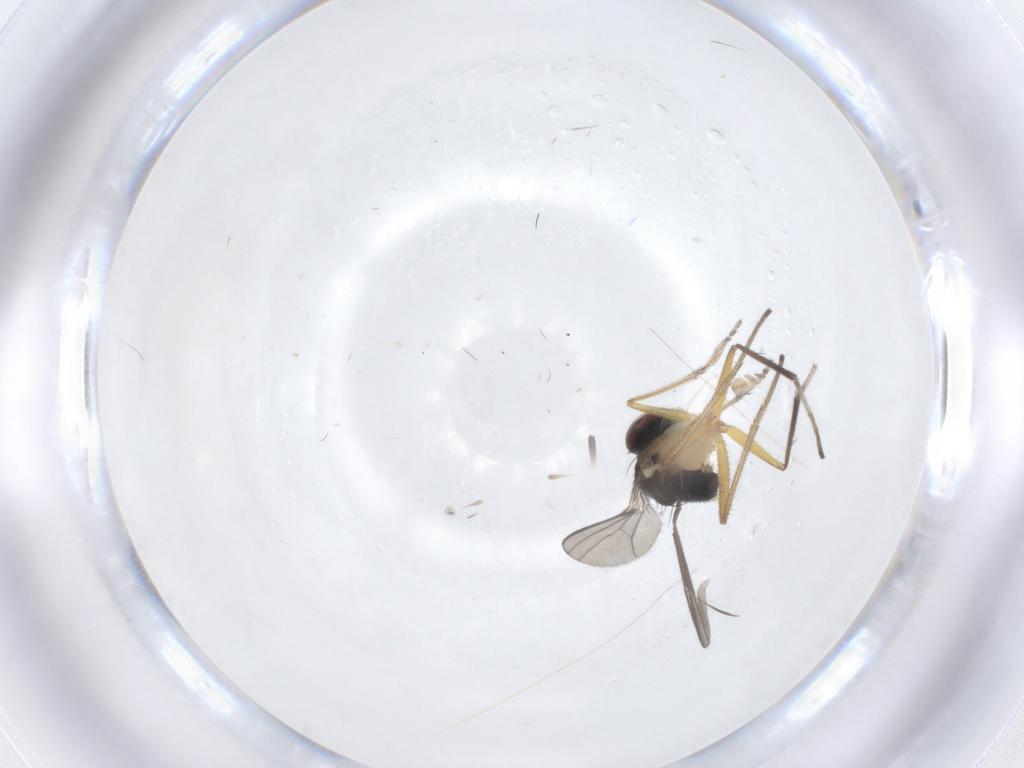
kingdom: Animalia
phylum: Arthropoda
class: Insecta
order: Diptera
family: Dolichopodidae
